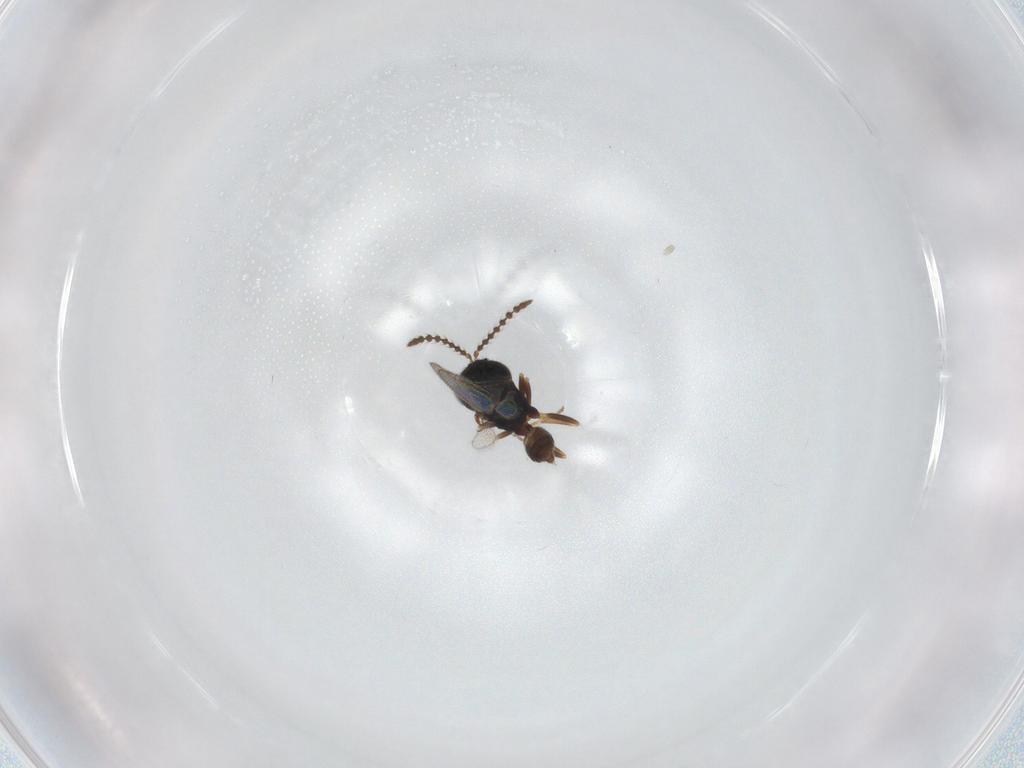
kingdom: Animalia
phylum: Arthropoda
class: Insecta
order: Hymenoptera
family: Pteromalidae
